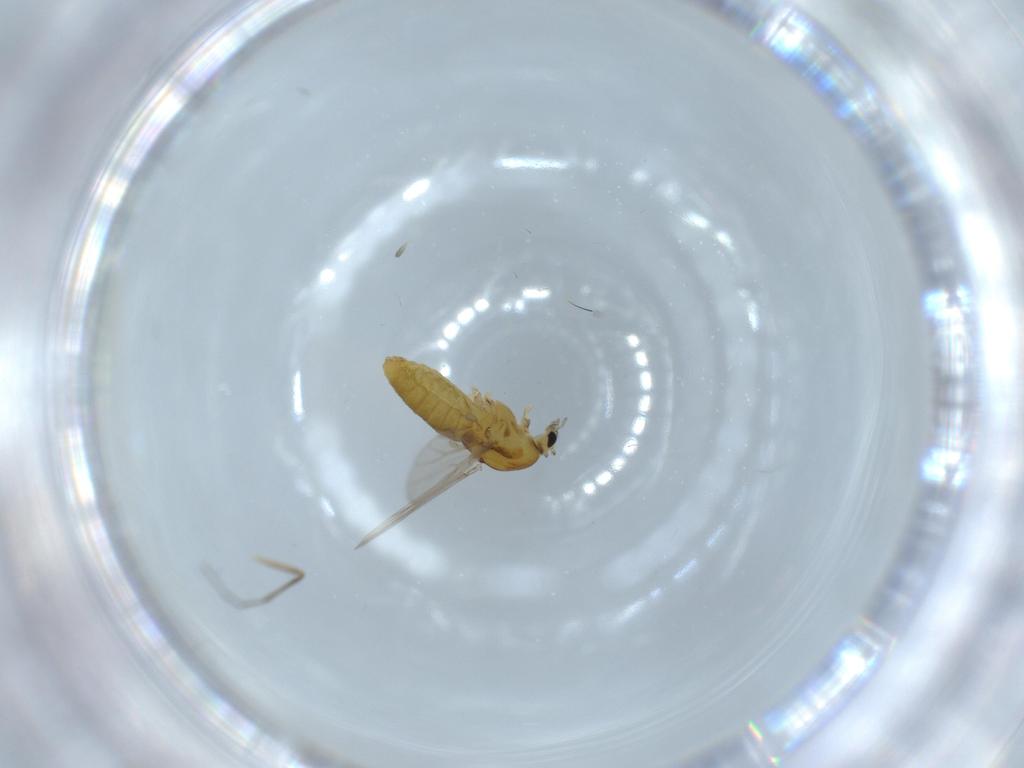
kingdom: Animalia
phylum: Arthropoda
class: Insecta
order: Diptera
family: Chironomidae
